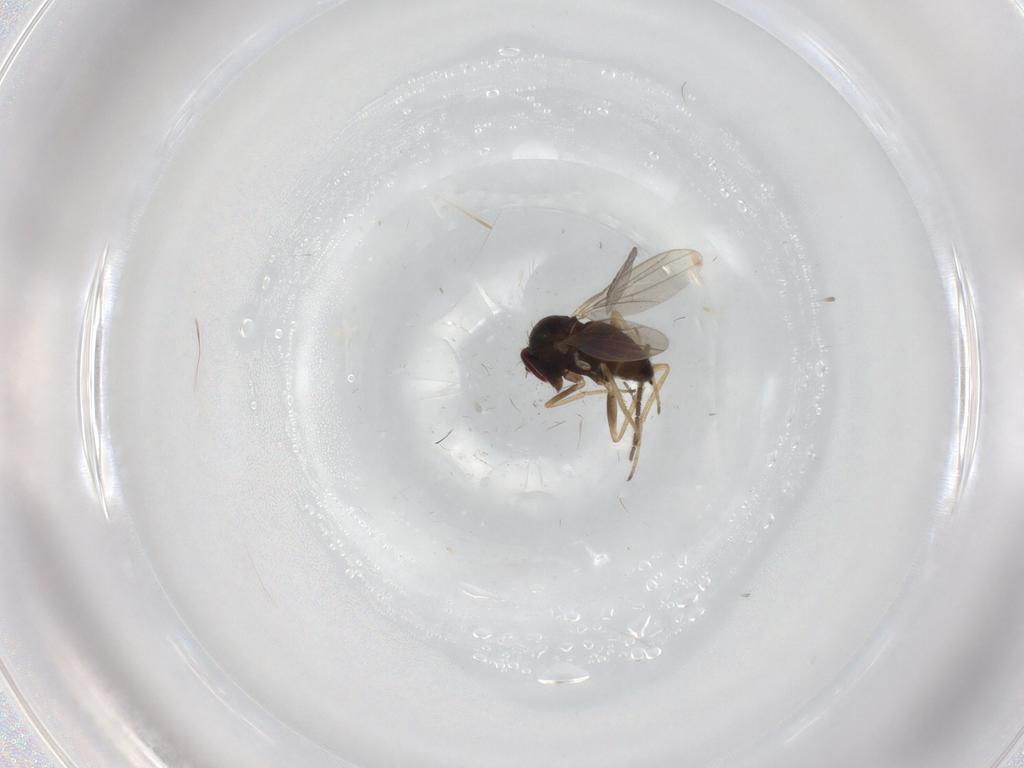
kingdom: Animalia
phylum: Arthropoda
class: Insecta
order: Diptera
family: Dolichopodidae
